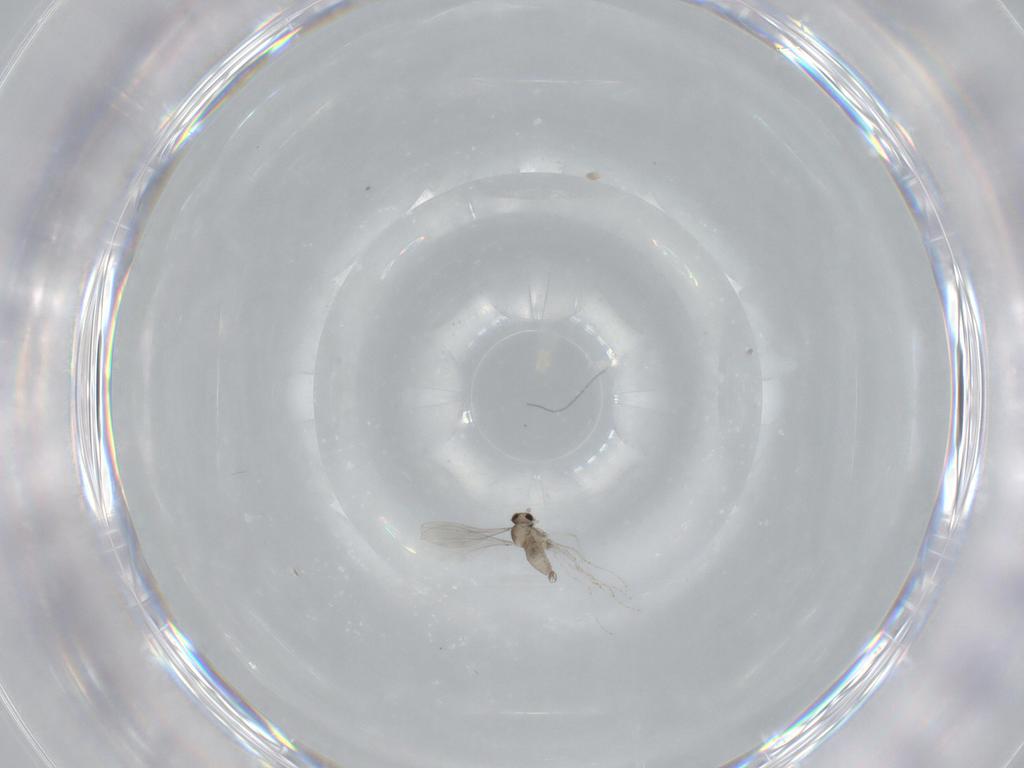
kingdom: Animalia
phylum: Arthropoda
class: Insecta
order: Diptera
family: Cecidomyiidae
